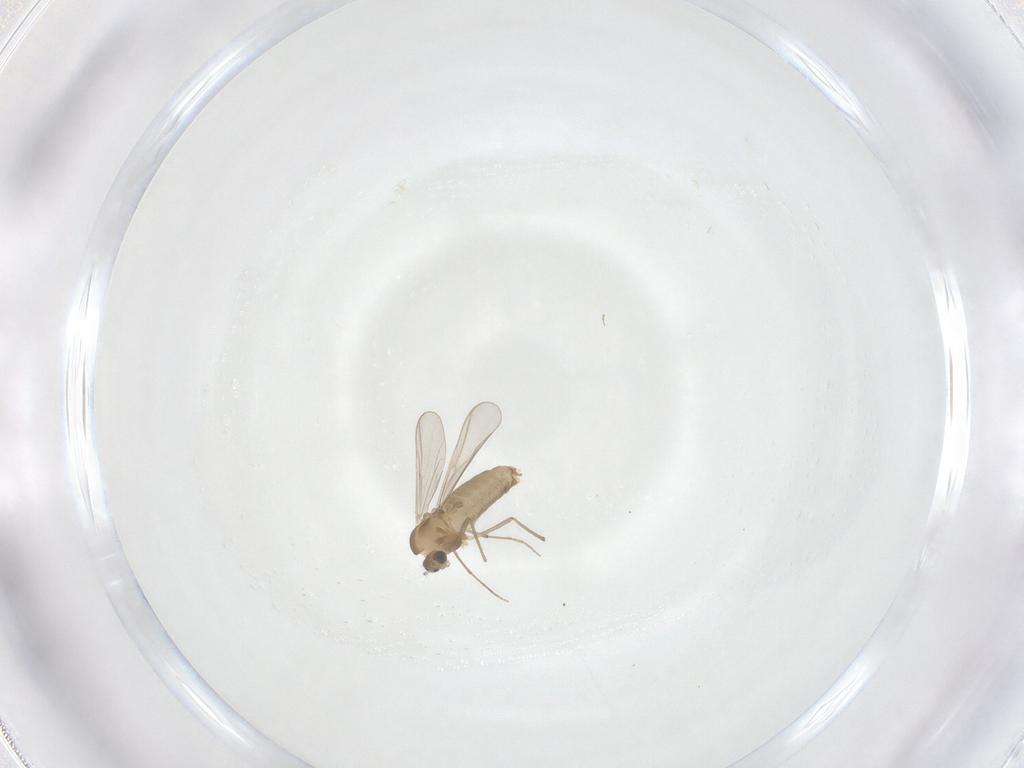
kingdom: Animalia
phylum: Arthropoda
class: Insecta
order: Diptera
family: Chironomidae
